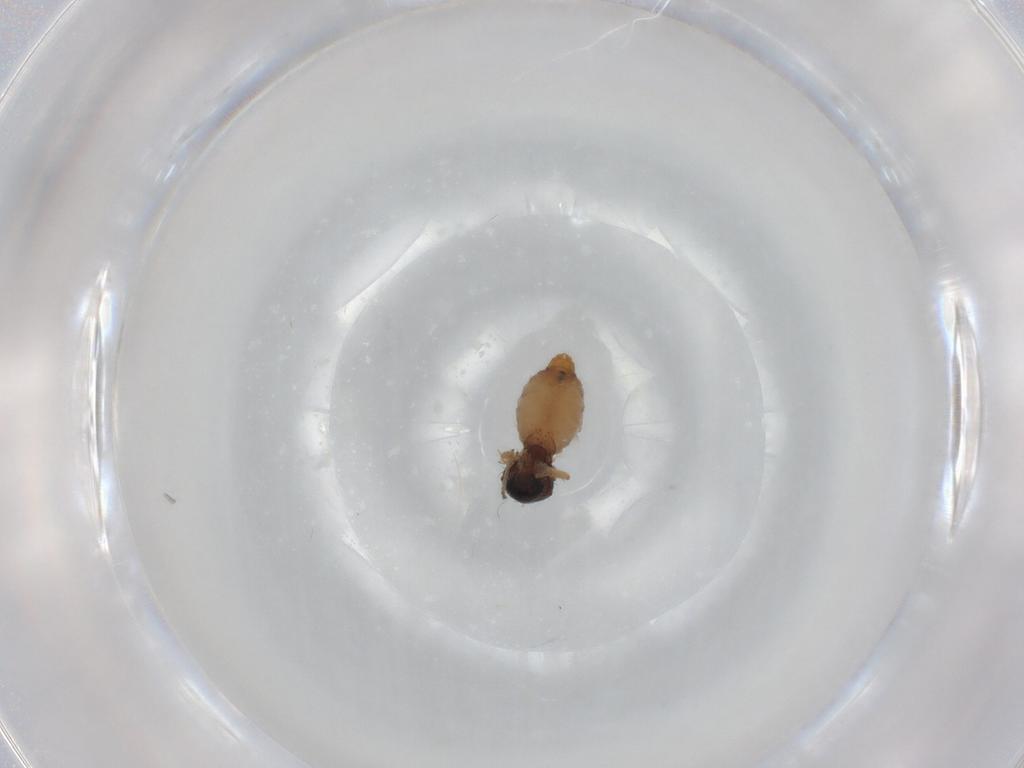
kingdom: Animalia
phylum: Arthropoda
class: Insecta
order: Diptera
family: Ceratopogonidae
